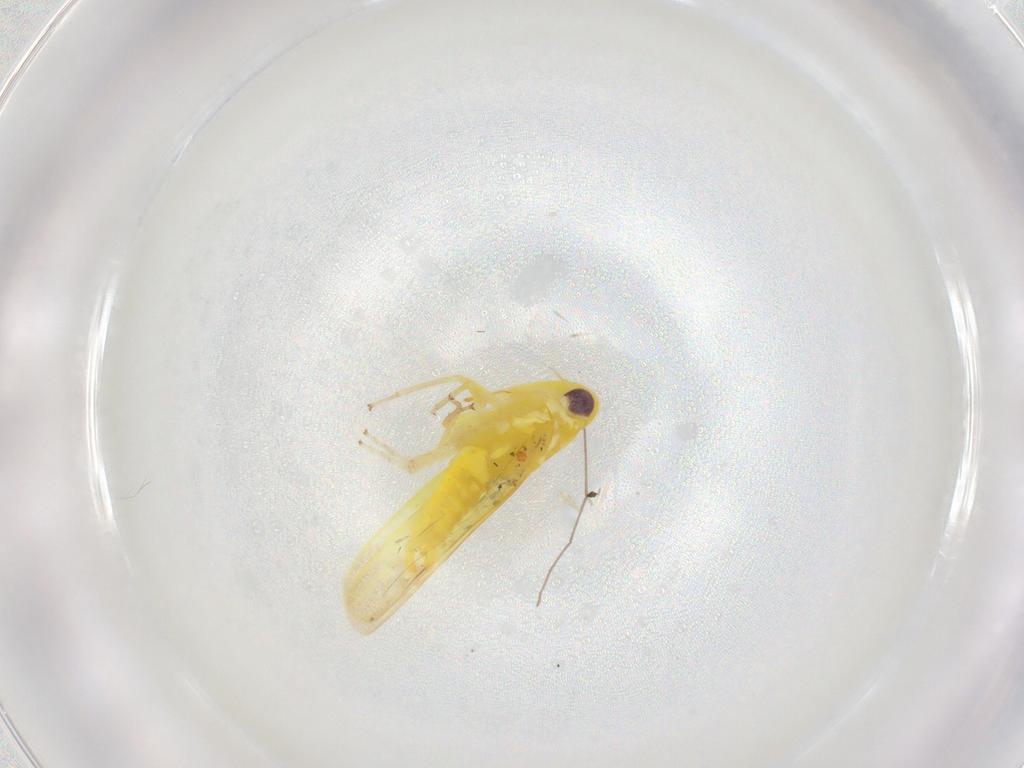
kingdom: Animalia
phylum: Arthropoda
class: Insecta
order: Hemiptera
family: Cicadellidae
